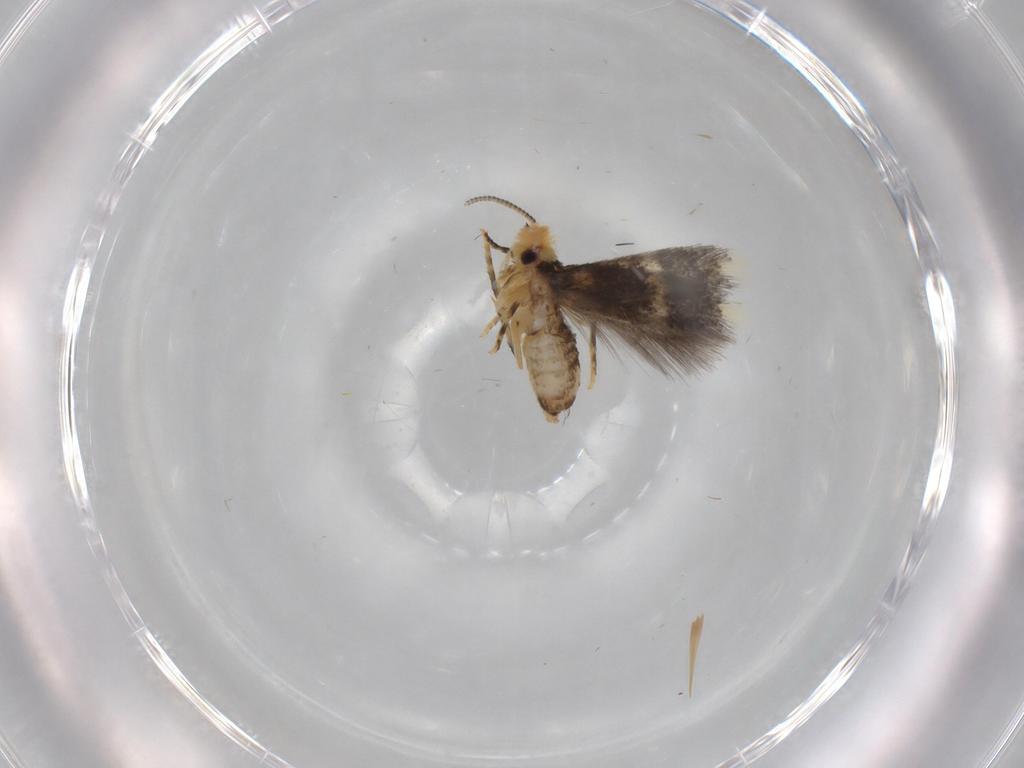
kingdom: Animalia
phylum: Arthropoda
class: Insecta
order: Lepidoptera
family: Nepticulidae
